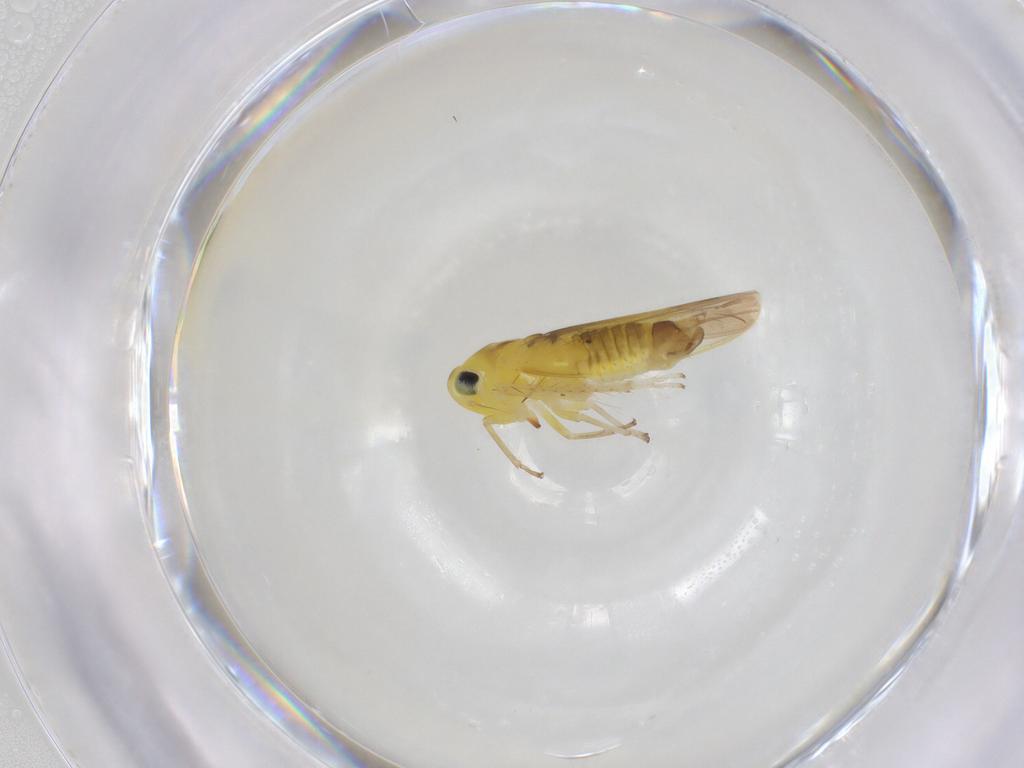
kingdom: Animalia
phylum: Arthropoda
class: Insecta
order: Hemiptera
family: Cicadellidae
